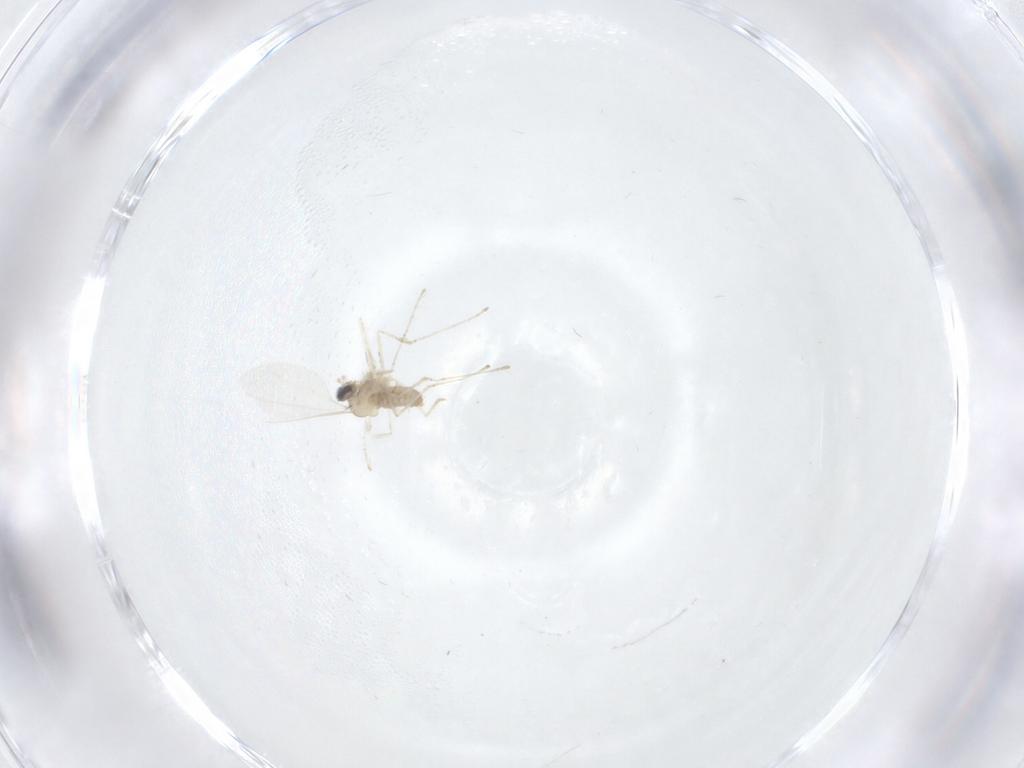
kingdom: Animalia
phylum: Arthropoda
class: Insecta
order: Diptera
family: Cecidomyiidae
